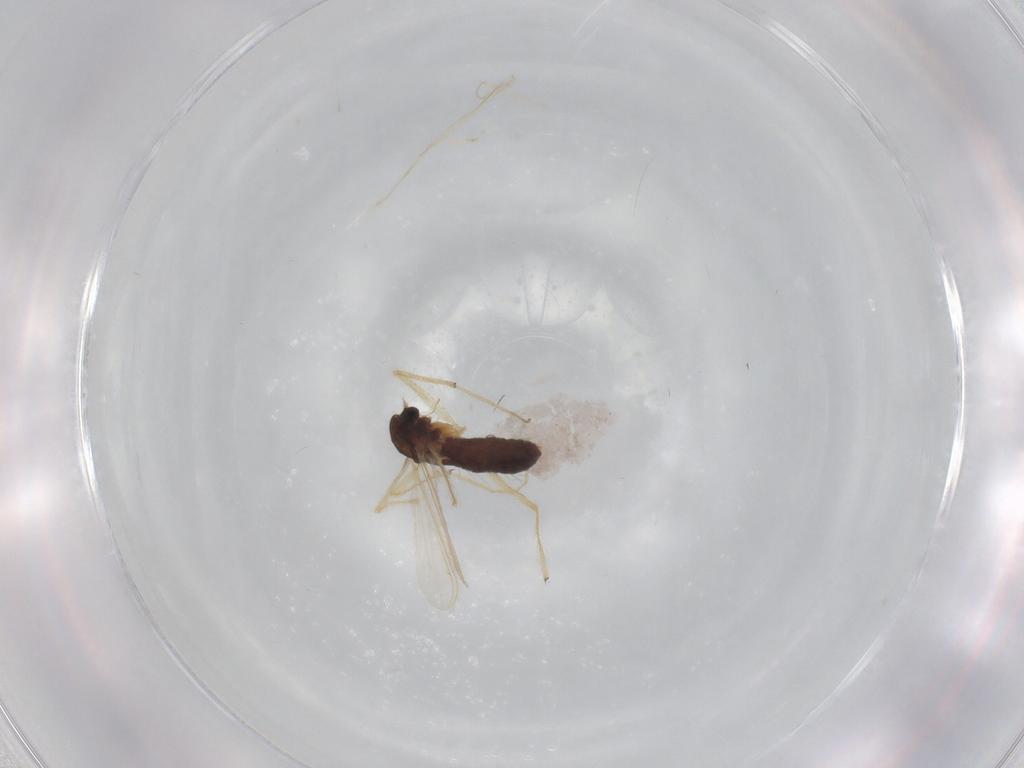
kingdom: Animalia
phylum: Arthropoda
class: Insecta
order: Diptera
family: Chironomidae
